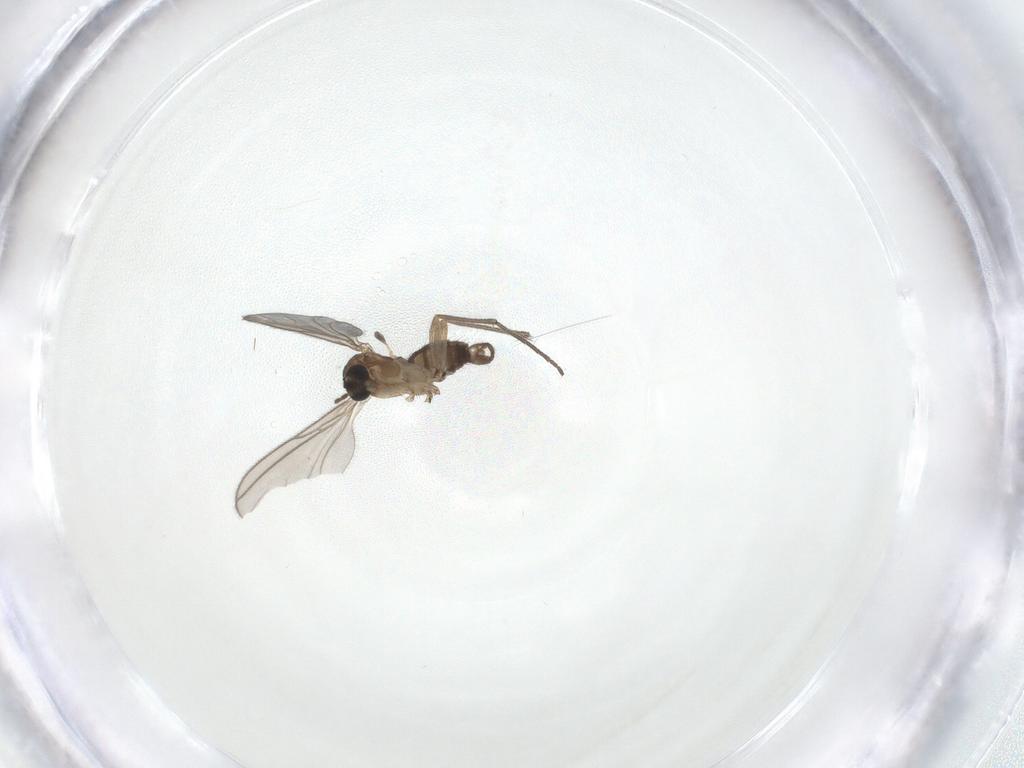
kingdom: Animalia
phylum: Arthropoda
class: Insecta
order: Diptera
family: Sciaridae
